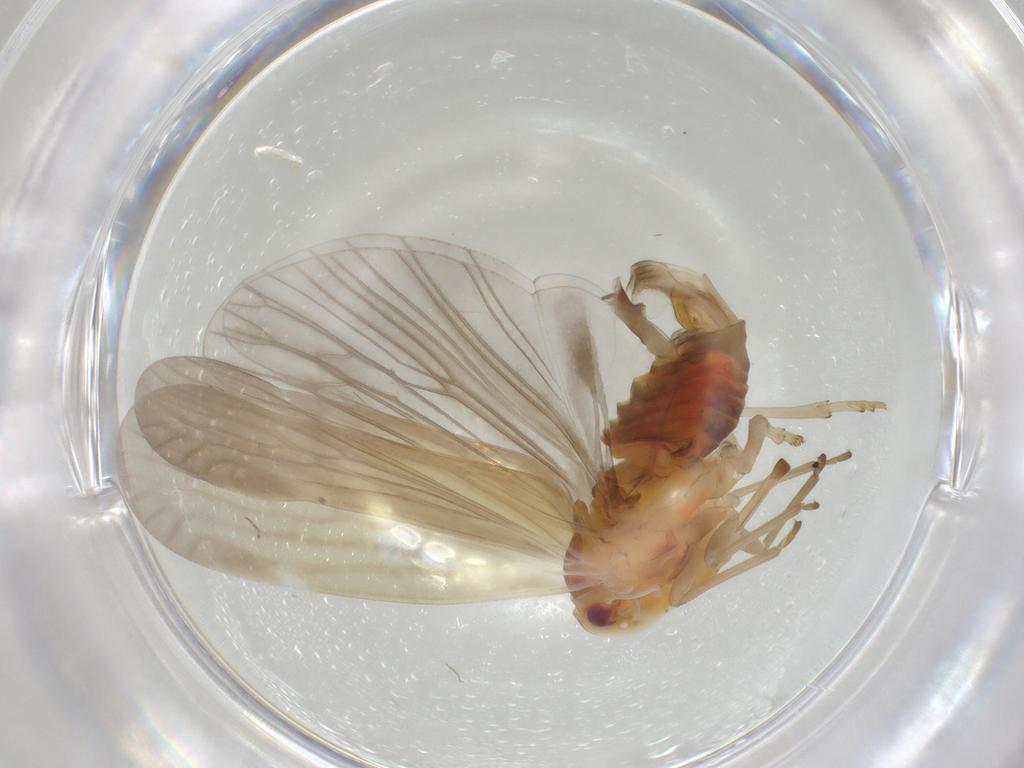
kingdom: Animalia
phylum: Arthropoda
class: Insecta
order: Hemiptera
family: Derbidae
